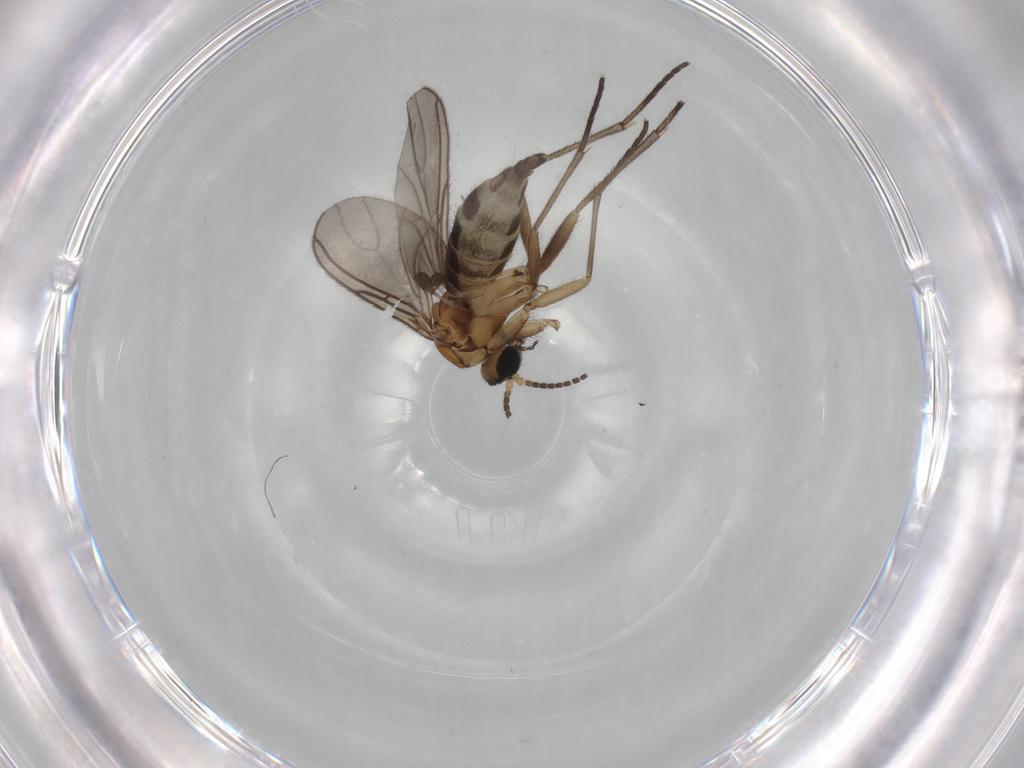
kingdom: Animalia
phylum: Arthropoda
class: Insecta
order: Diptera
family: Sciaridae
